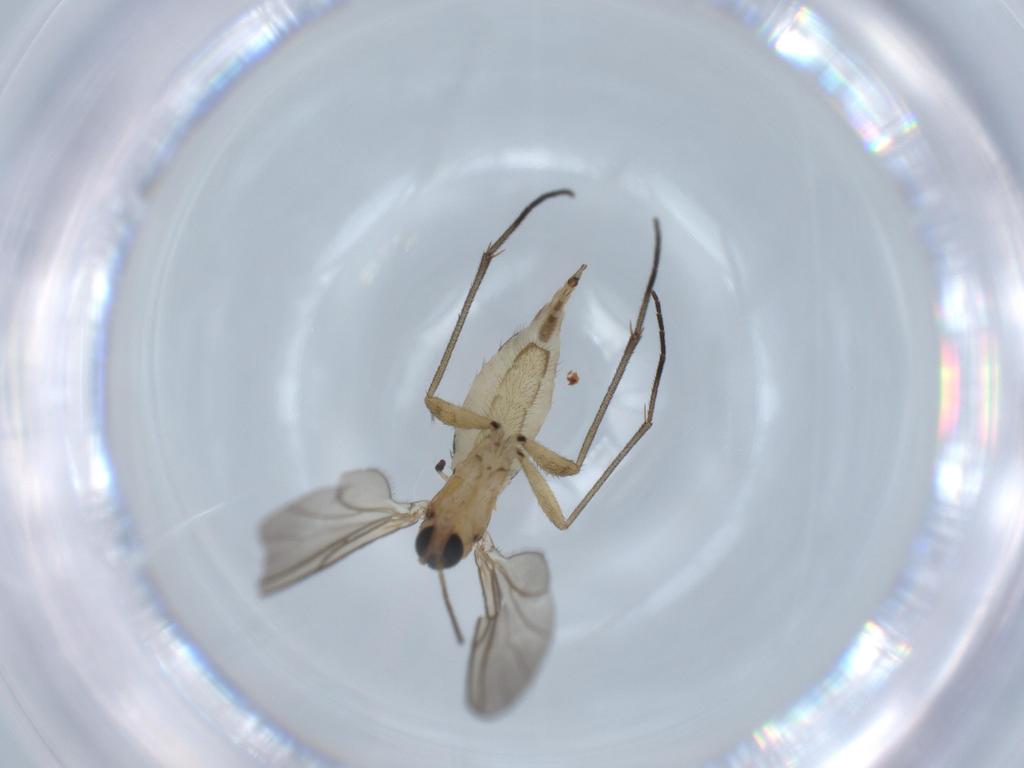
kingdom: Animalia
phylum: Arthropoda
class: Insecta
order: Diptera
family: Sciaridae
